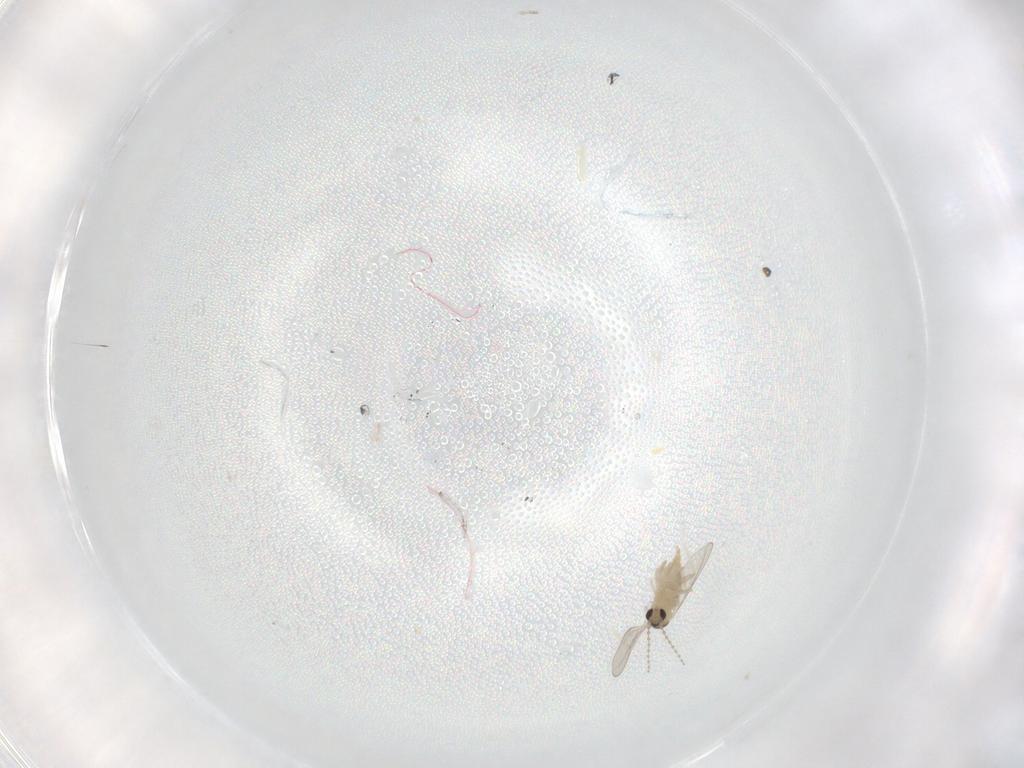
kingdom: Animalia
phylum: Arthropoda
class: Insecta
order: Diptera
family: Cecidomyiidae
